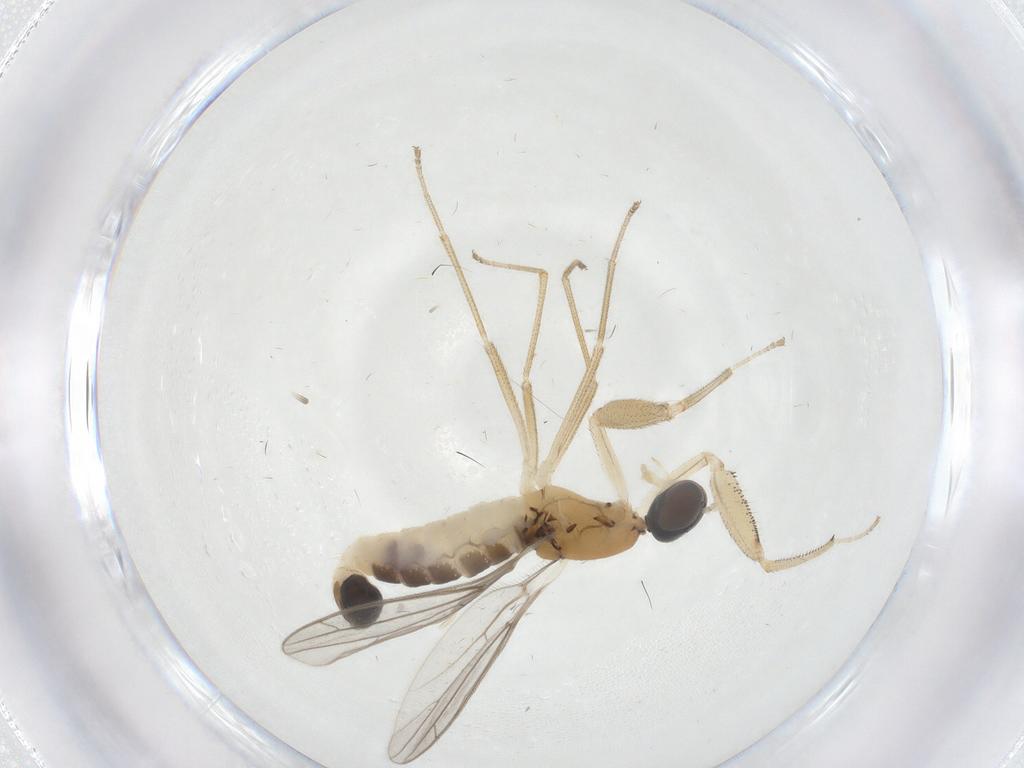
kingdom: Animalia
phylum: Arthropoda
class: Insecta
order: Diptera
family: Empididae
